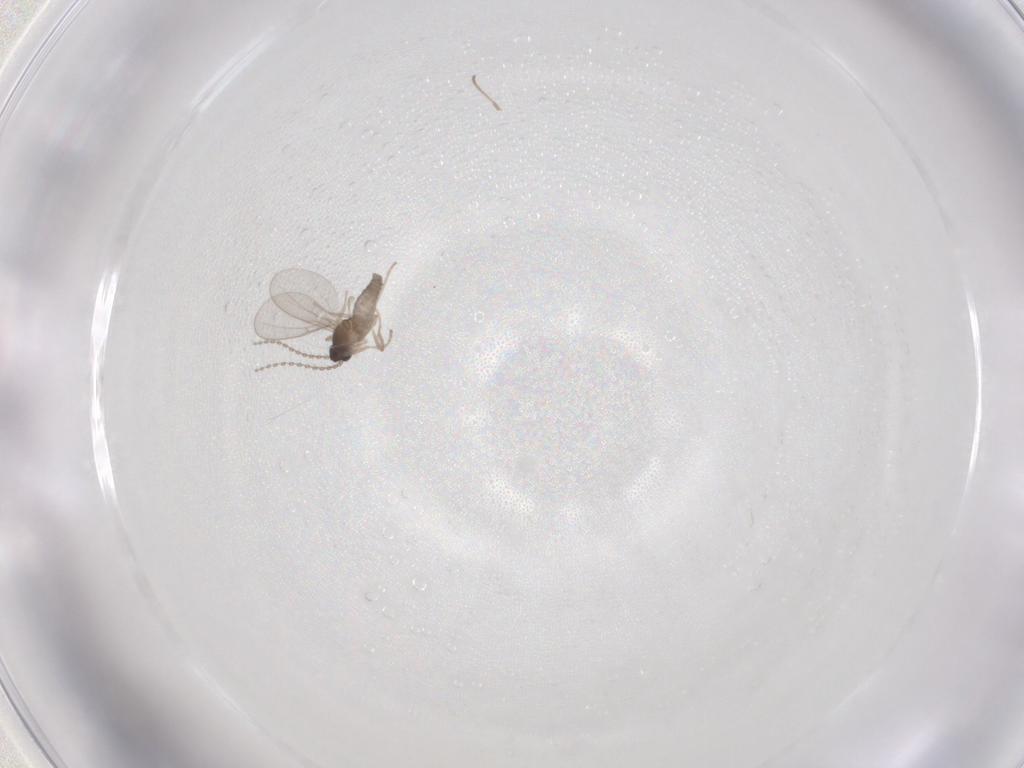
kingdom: Animalia
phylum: Arthropoda
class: Insecta
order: Diptera
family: Cecidomyiidae
